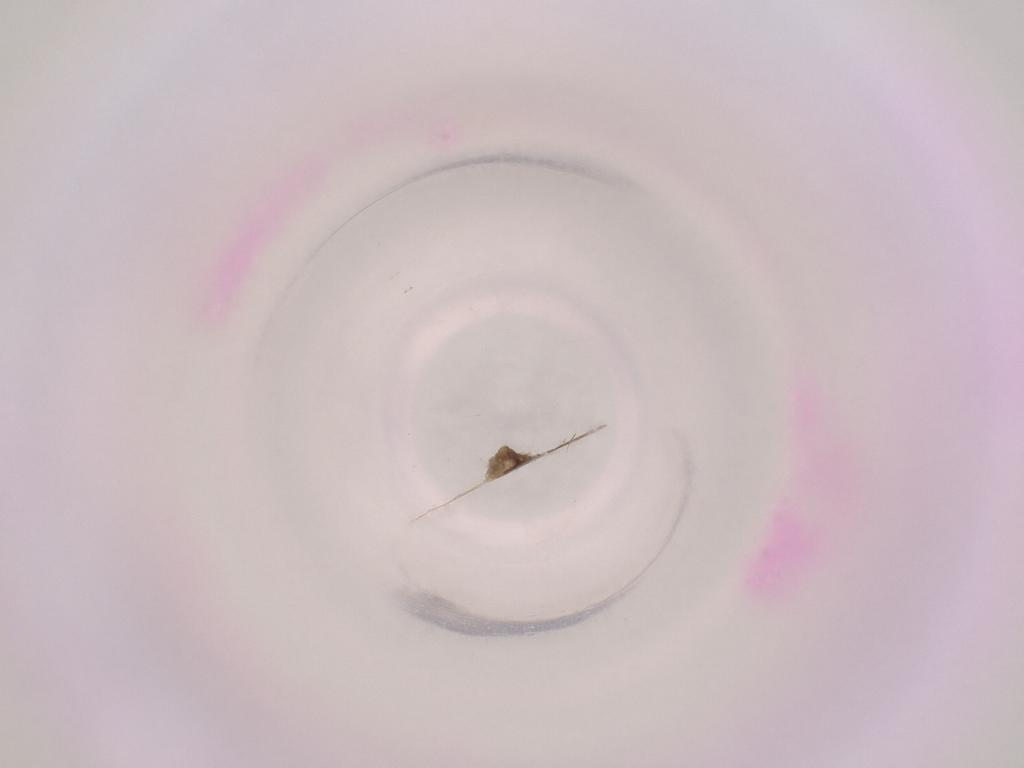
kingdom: Animalia
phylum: Arthropoda
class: Insecta
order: Diptera
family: Cecidomyiidae
